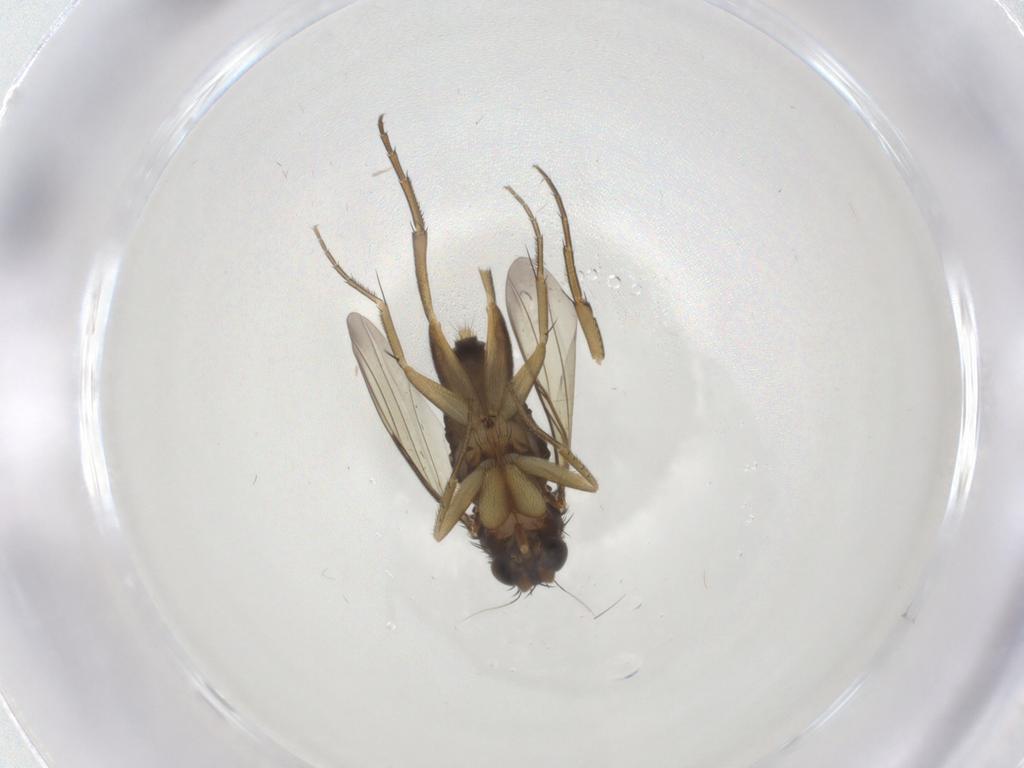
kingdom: Animalia
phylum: Arthropoda
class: Insecta
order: Diptera
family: Phoridae
